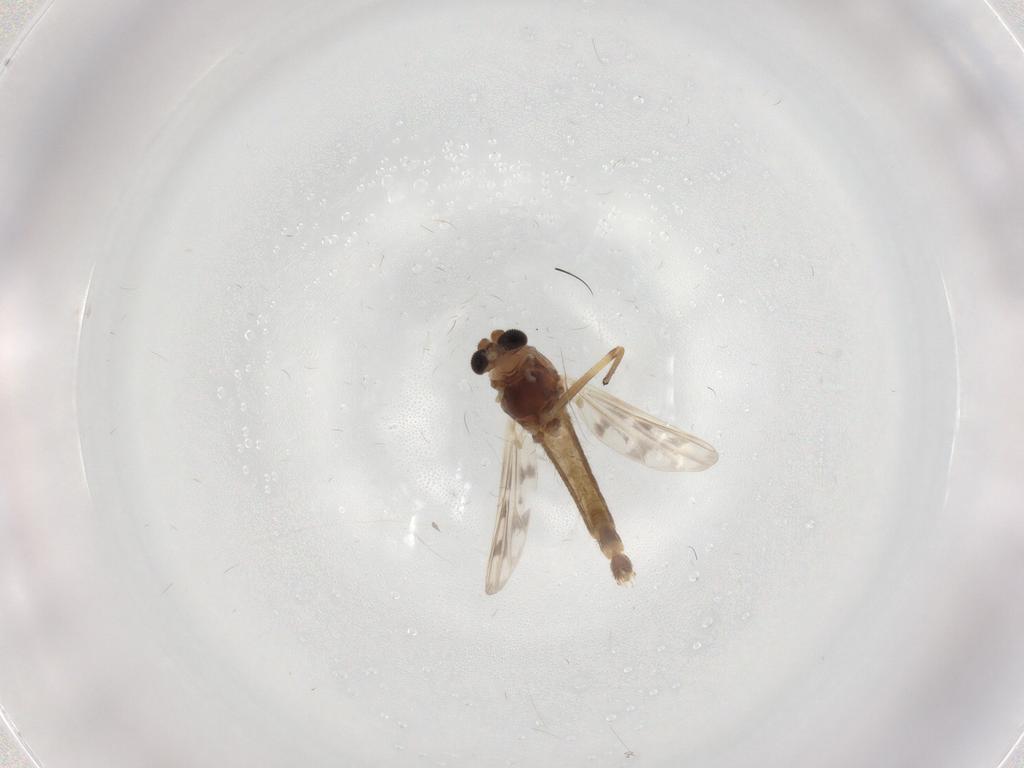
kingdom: Animalia
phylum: Arthropoda
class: Insecta
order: Diptera
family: Chironomidae
